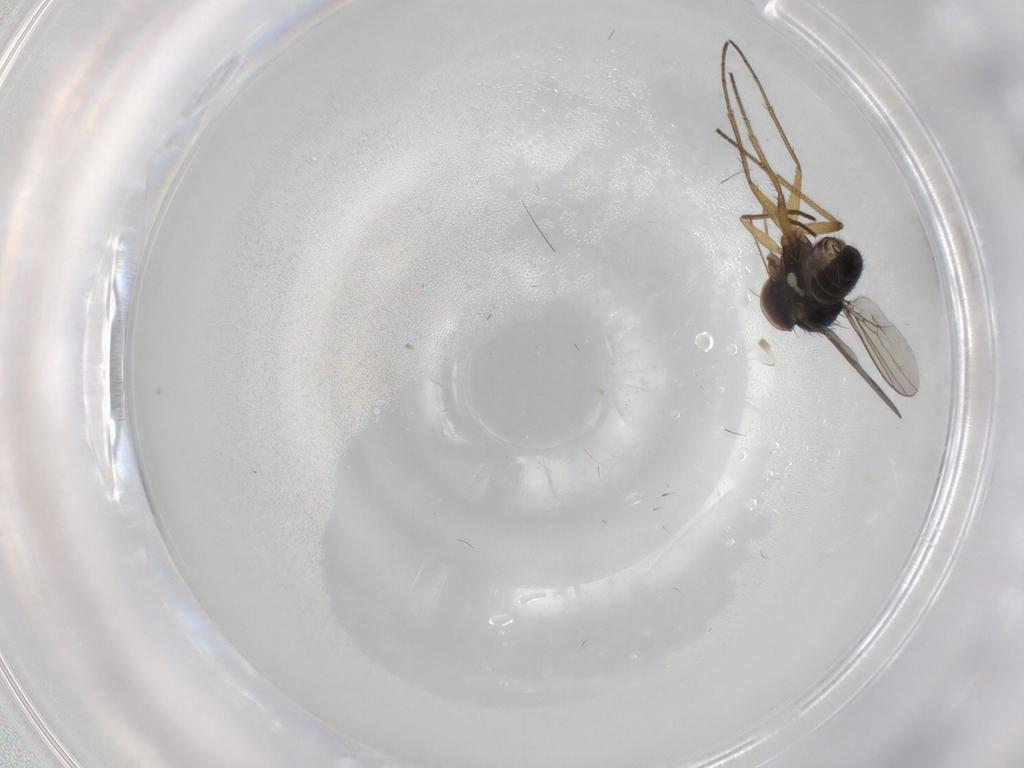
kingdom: Animalia
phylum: Arthropoda
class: Insecta
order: Diptera
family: Dolichopodidae
